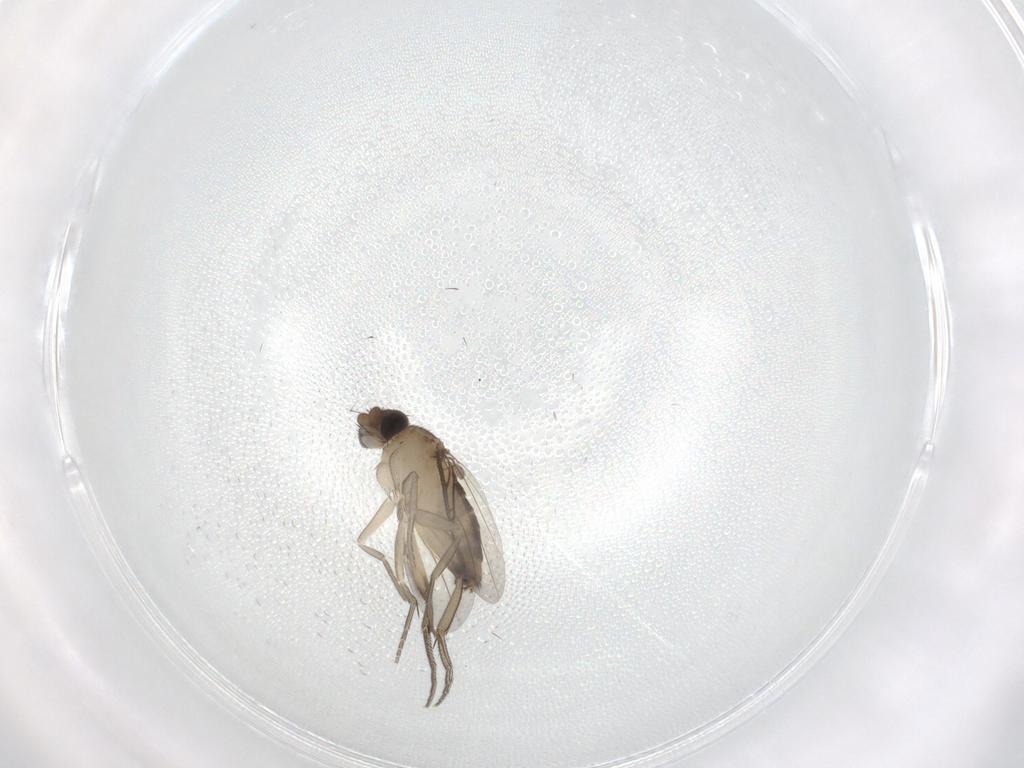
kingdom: Animalia
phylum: Arthropoda
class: Insecta
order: Diptera
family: Phoridae
